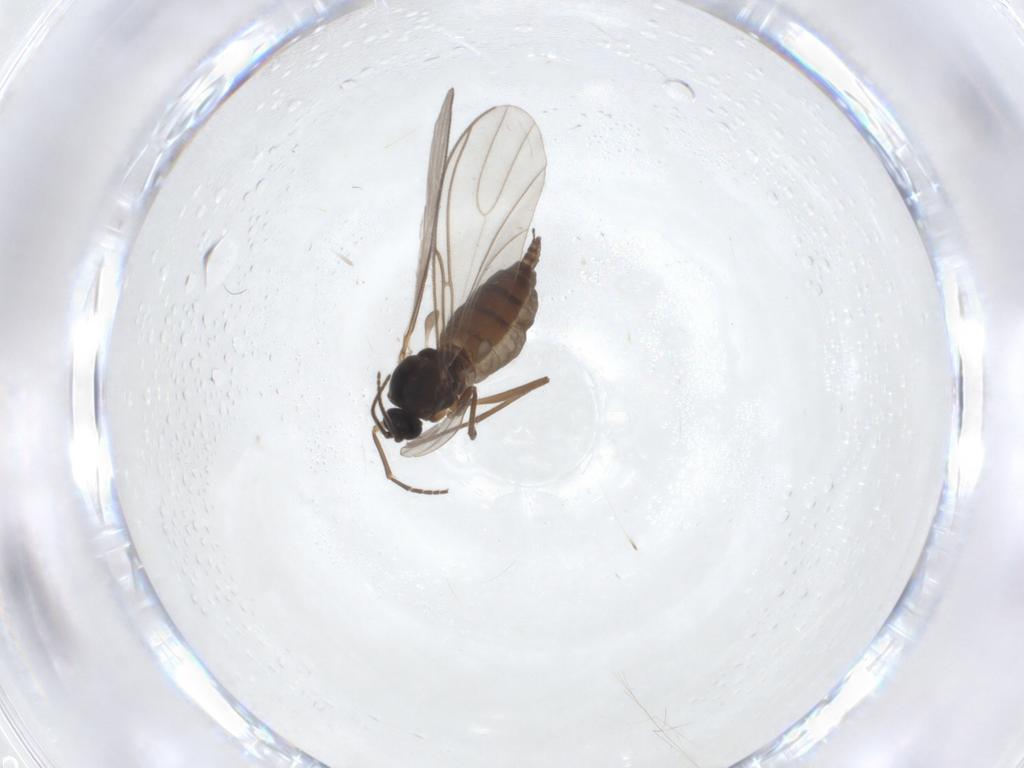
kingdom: Animalia
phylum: Arthropoda
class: Insecta
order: Diptera
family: Sciaridae
